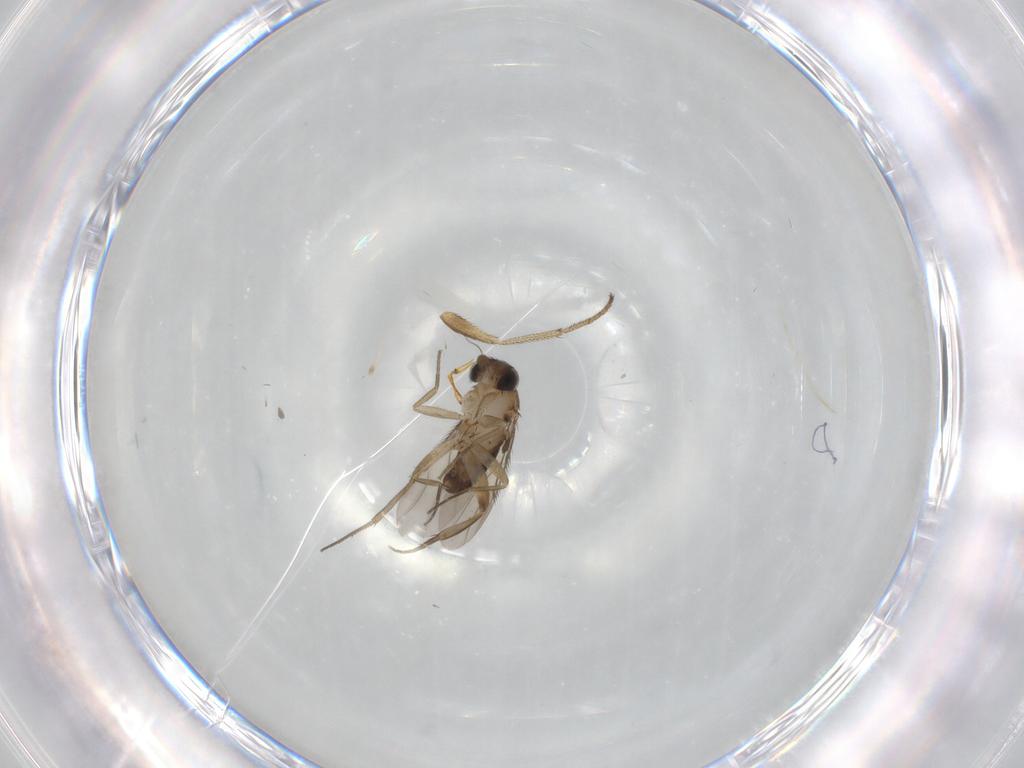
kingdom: Animalia
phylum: Arthropoda
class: Insecta
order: Diptera
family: Phoridae
